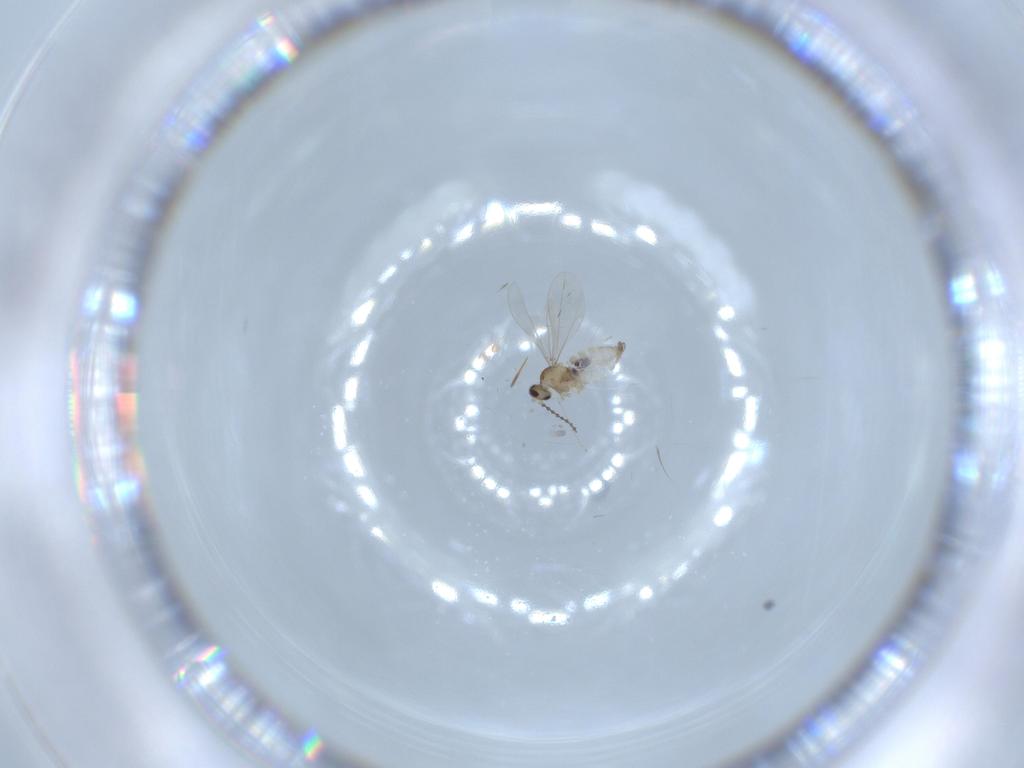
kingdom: Animalia
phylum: Arthropoda
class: Insecta
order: Diptera
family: Cecidomyiidae
